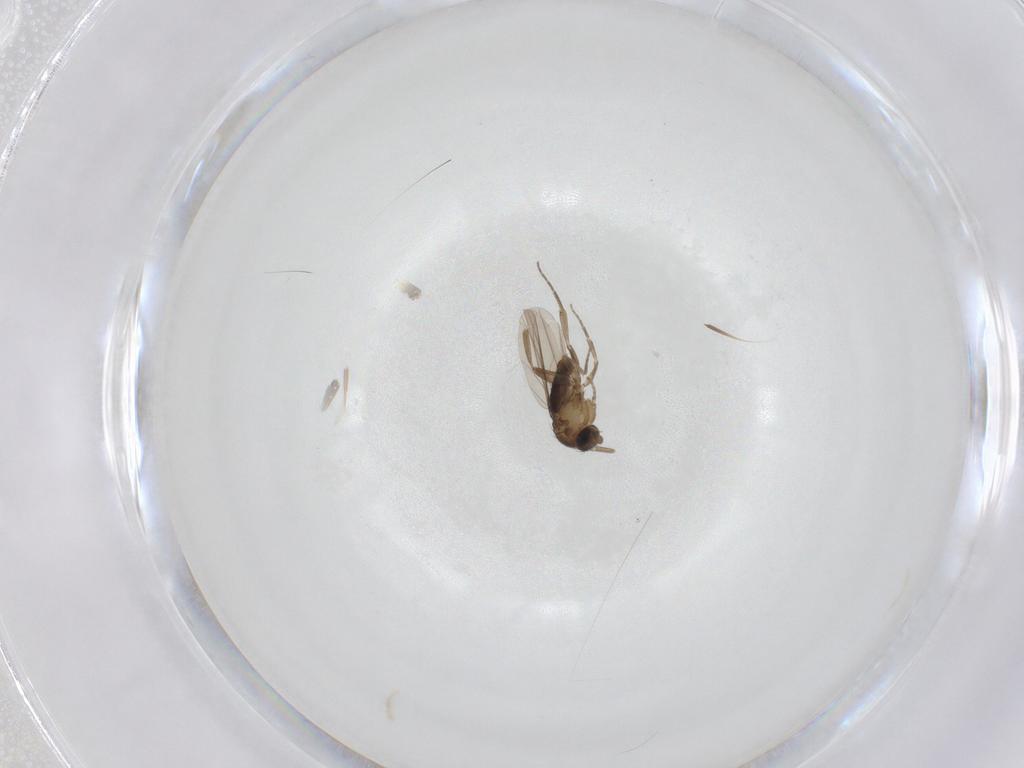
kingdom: Animalia
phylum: Arthropoda
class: Insecta
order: Diptera
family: Phoridae
